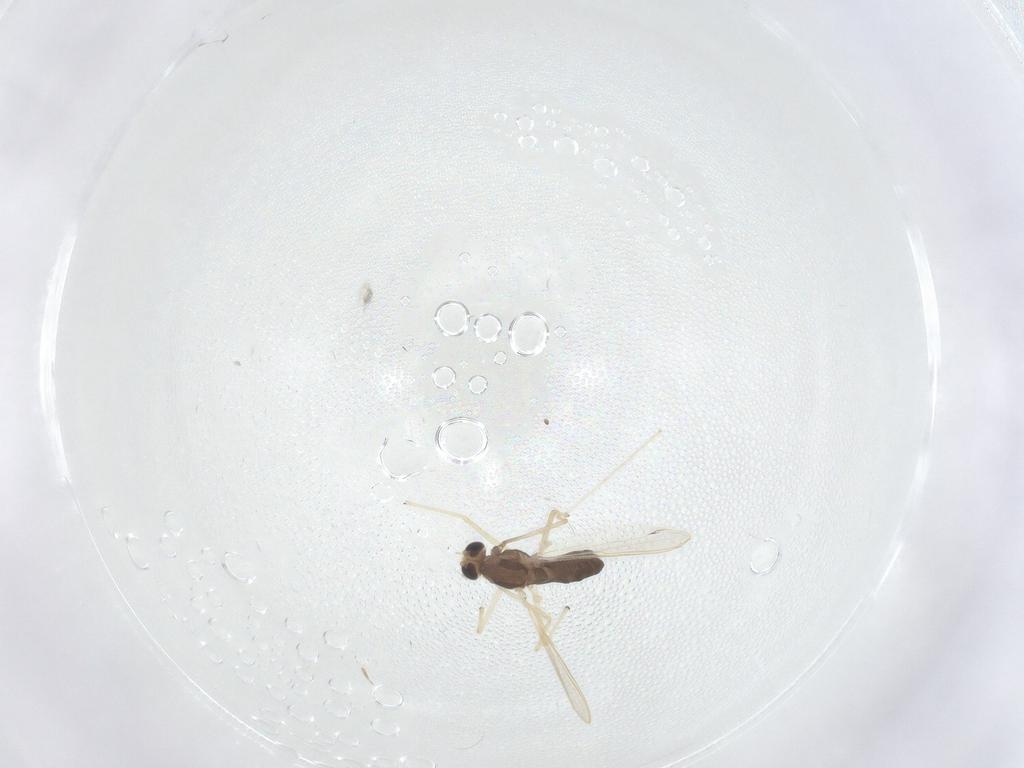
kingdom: Animalia
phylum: Arthropoda
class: Insecta
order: Diptera
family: Chironomidae
